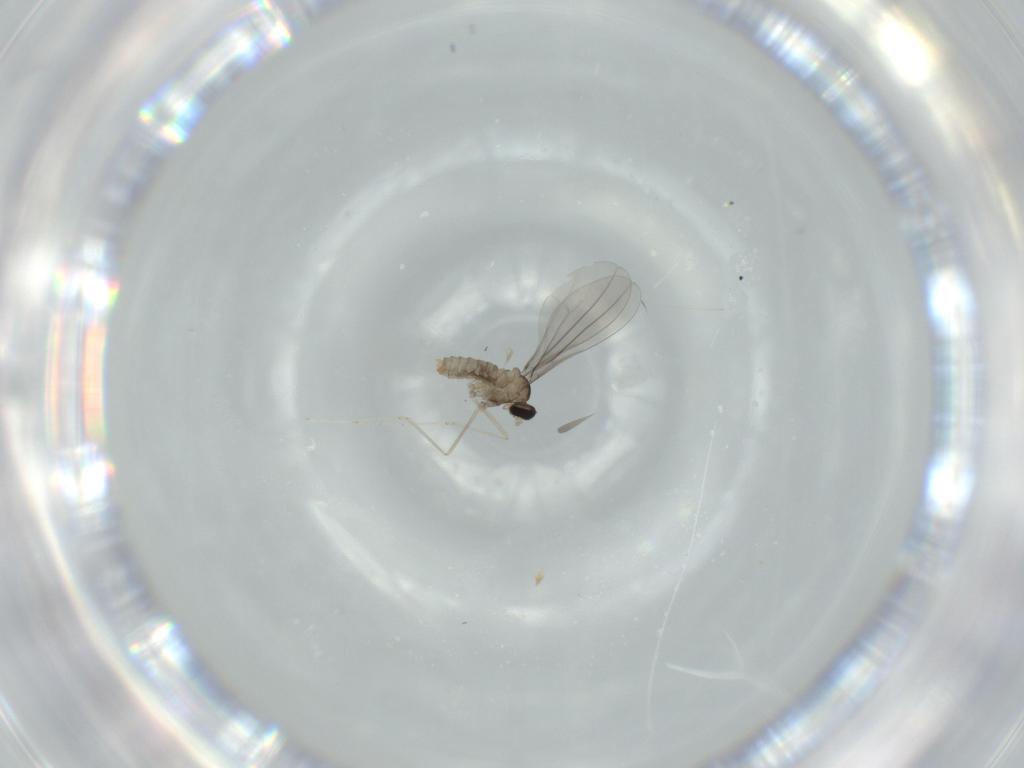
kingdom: Animalia
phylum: Arthropoda
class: Insecta
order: Diptera
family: Cecidomyiidae
